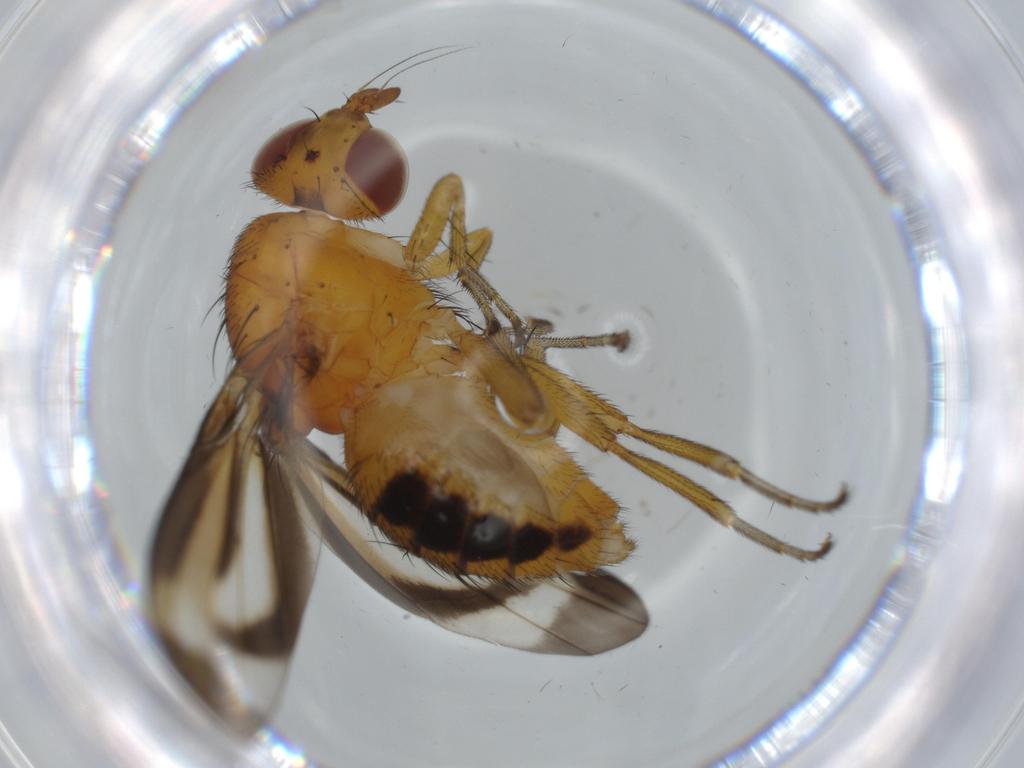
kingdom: Animalia
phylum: Arthropoda
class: Insecta
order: Diptera
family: Lauxaniidae
